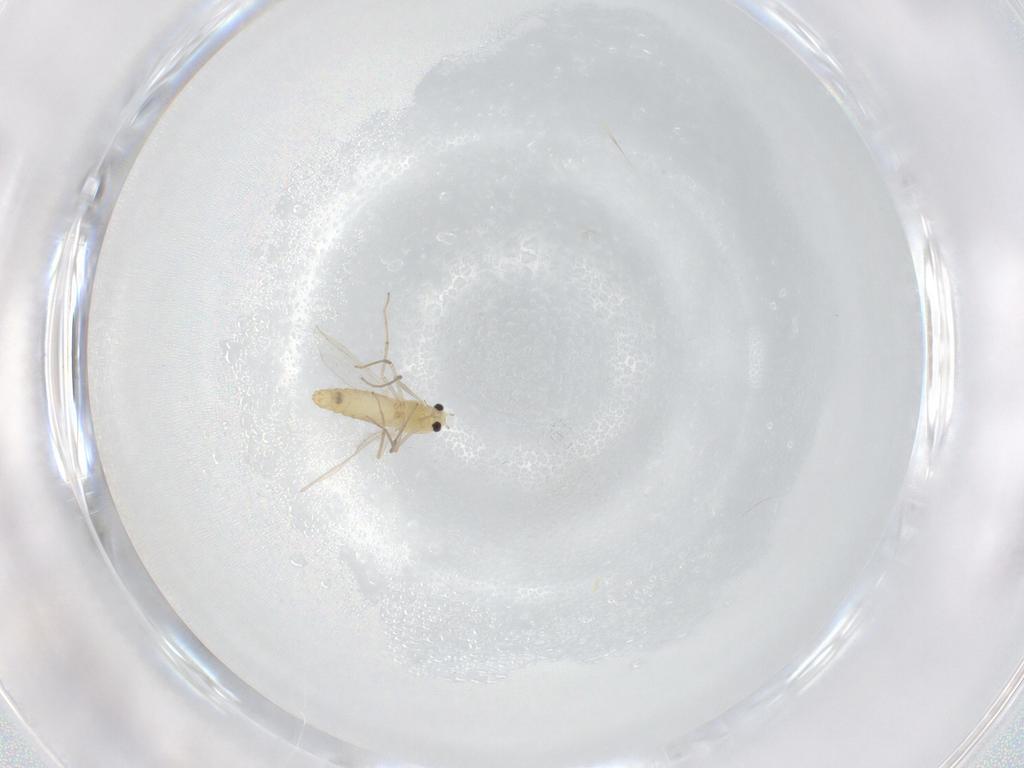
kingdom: Animalia
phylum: Arthropoda
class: Insecta
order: Diptera
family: Chironomidae
